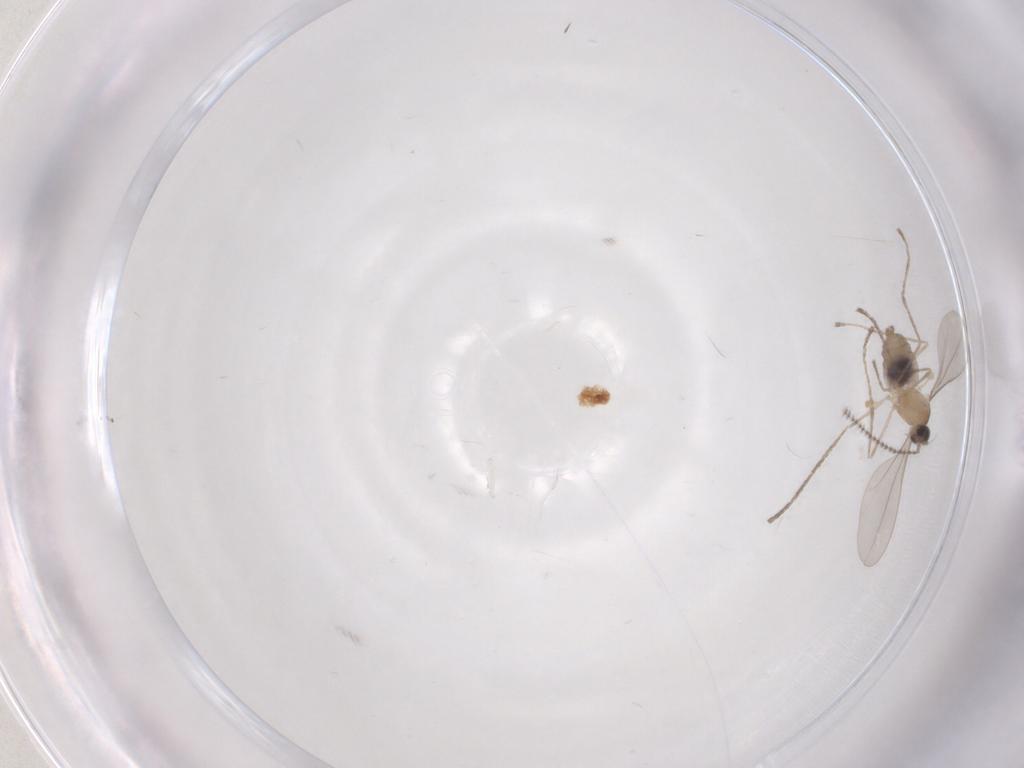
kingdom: Animalia
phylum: Arthropoda
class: Insecta
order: Diptera
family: Cecidomyiidae
